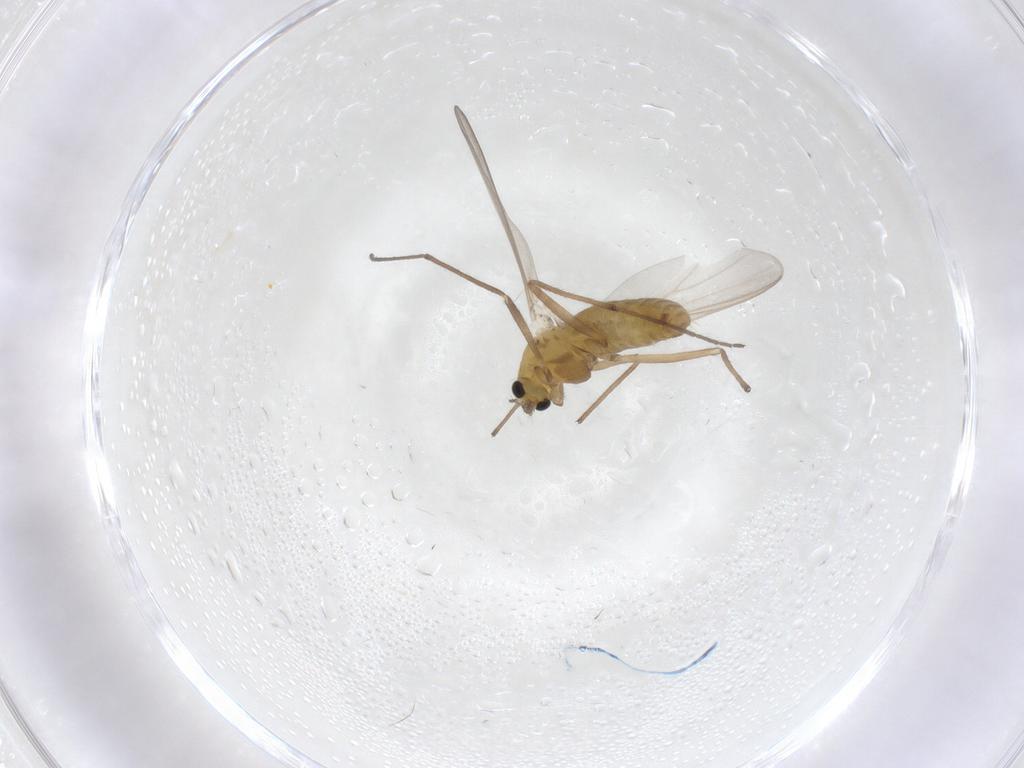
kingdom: Animalia
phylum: Arthropoda
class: Insecta
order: Diptera
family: Chironomidae
